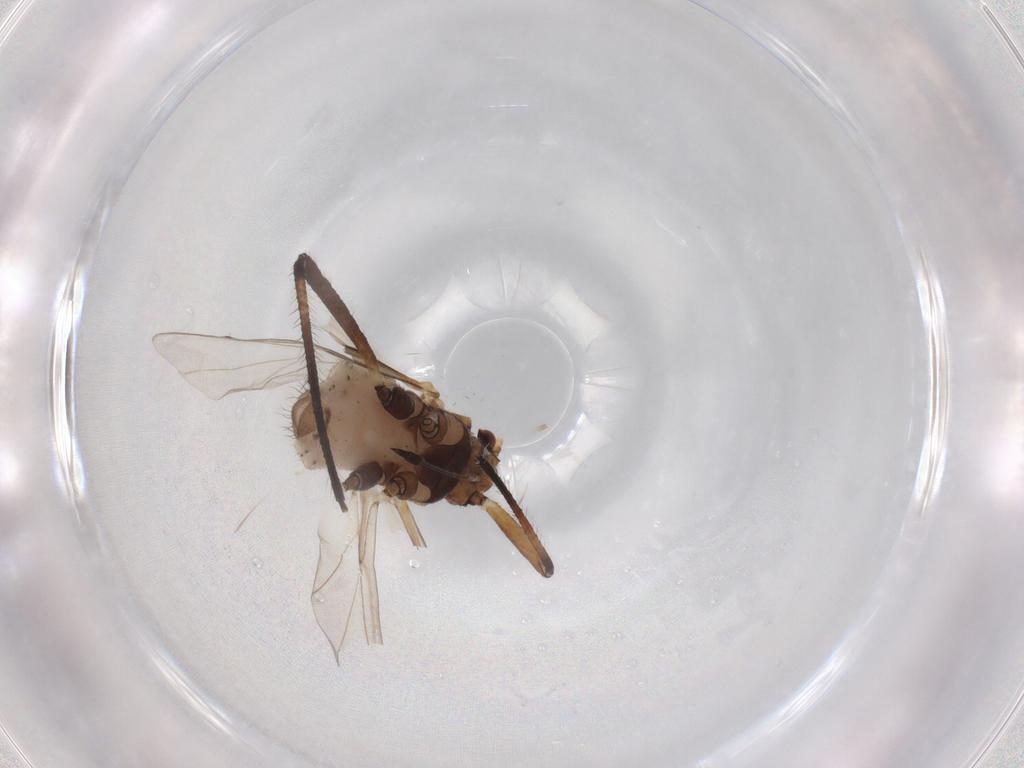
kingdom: Animalia
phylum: Arthropoda
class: Insecta
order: Hemiptera
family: Aphididae
